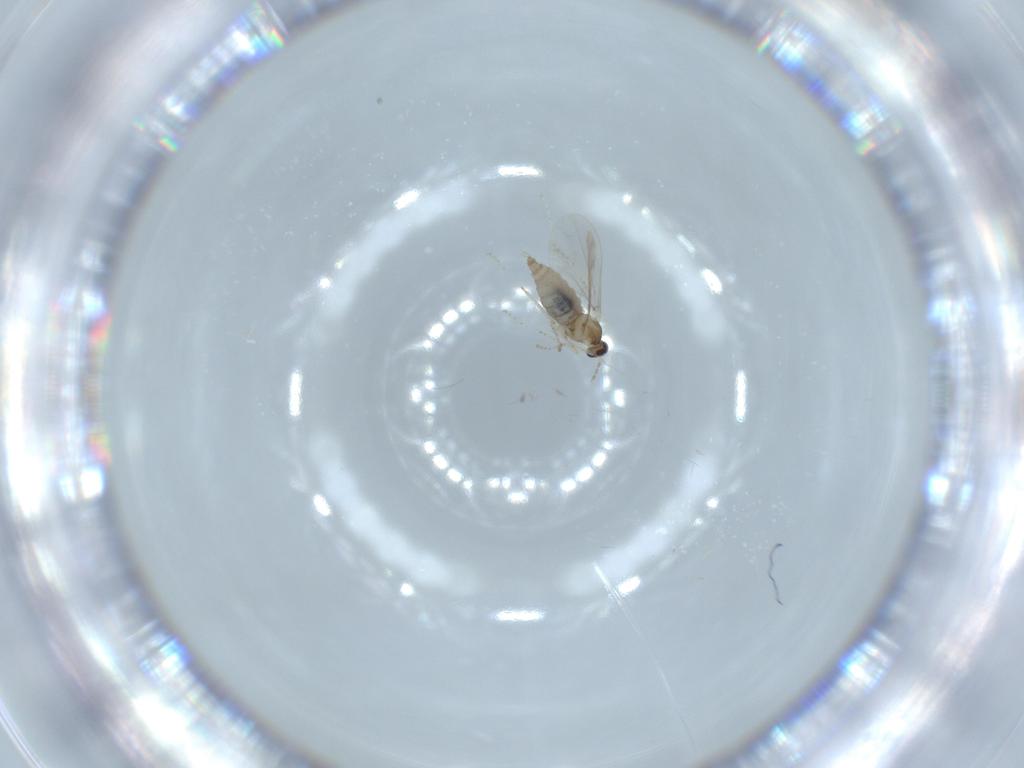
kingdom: Animalia
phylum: Arthropoda
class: Insecta
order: Diptera
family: Cecidomyiidae
